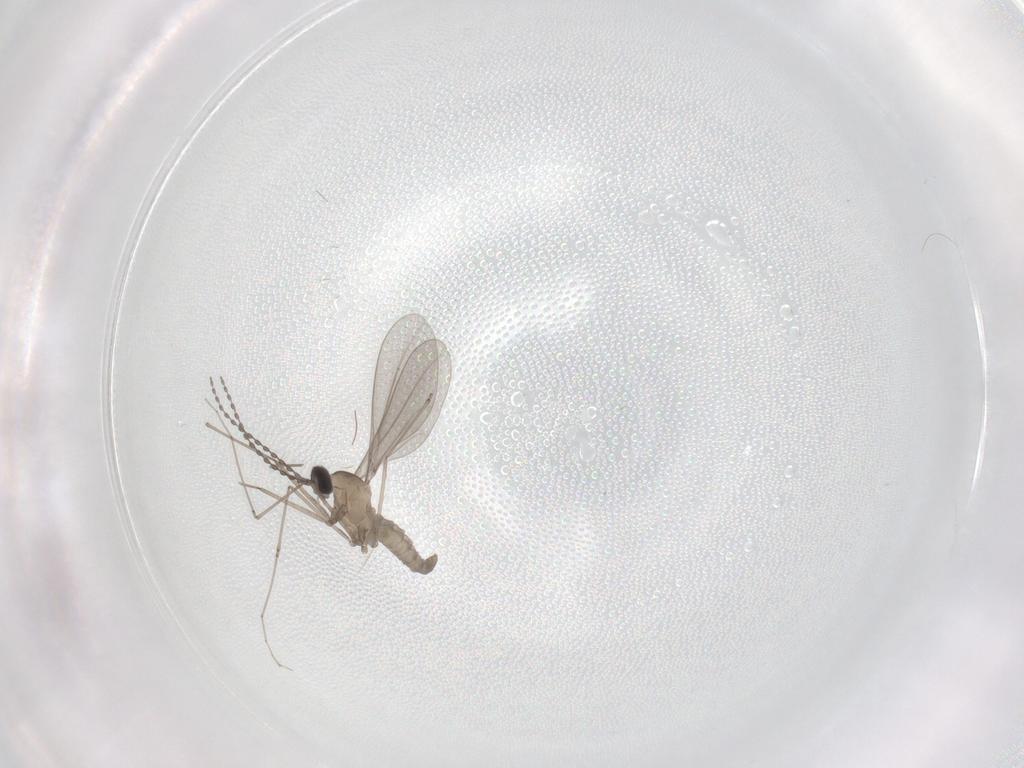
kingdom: Animalia
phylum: Arthropoda
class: Insecta
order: Diptera
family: Cecidomyiidae
